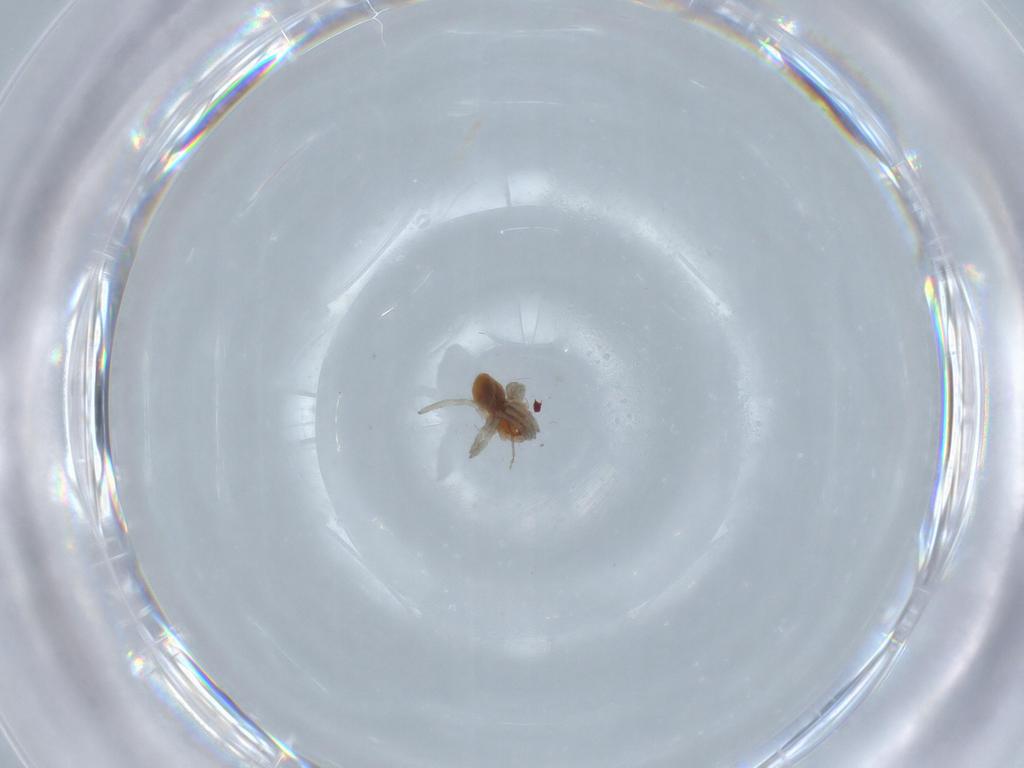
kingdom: Animalia
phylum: Arthropoda
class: Arachnida
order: Araneae
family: Dictynidae
